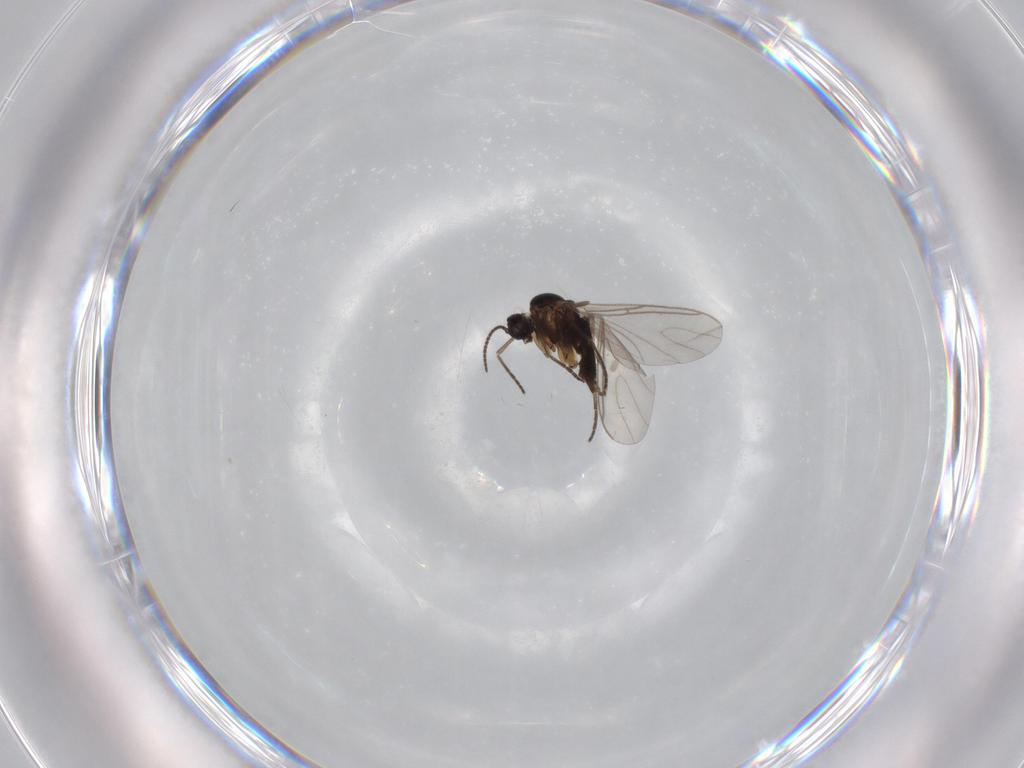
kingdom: Animalia
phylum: Arthropoda
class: Insecta
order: Diptera
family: Sciaridae
